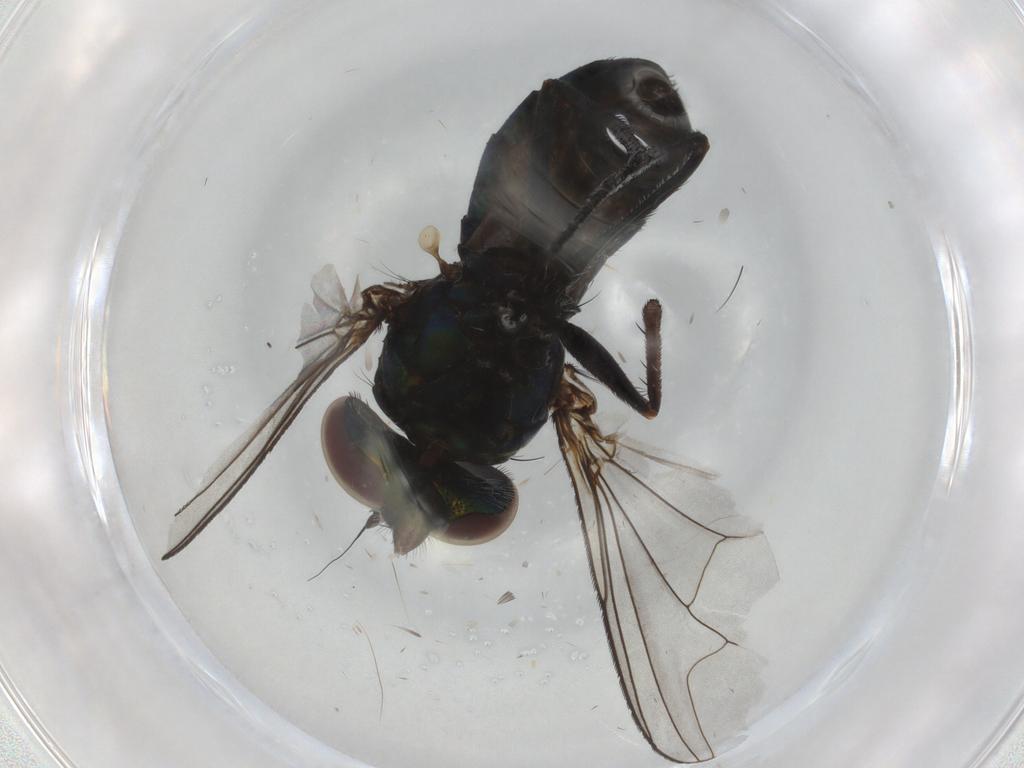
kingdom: Animalia
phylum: Arthropoda
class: Insecta
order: Diptera
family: Dolichopodidae
